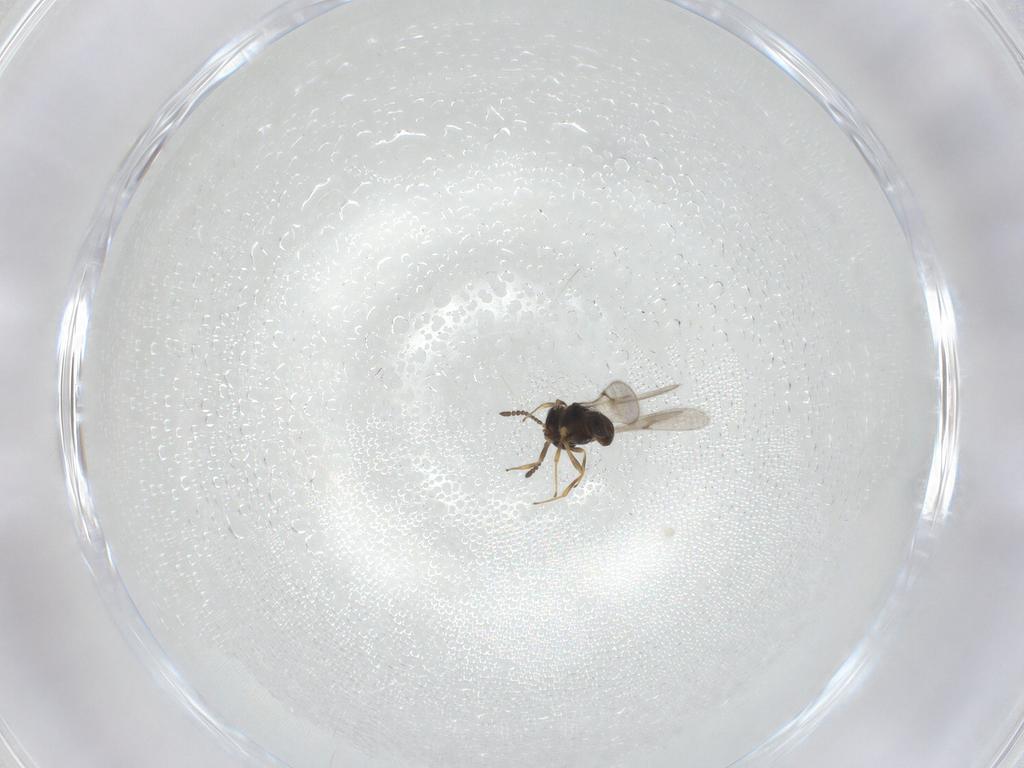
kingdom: Animalia
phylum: Arthropoda
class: Insecta
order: Hymenoptera
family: Scelionidae
